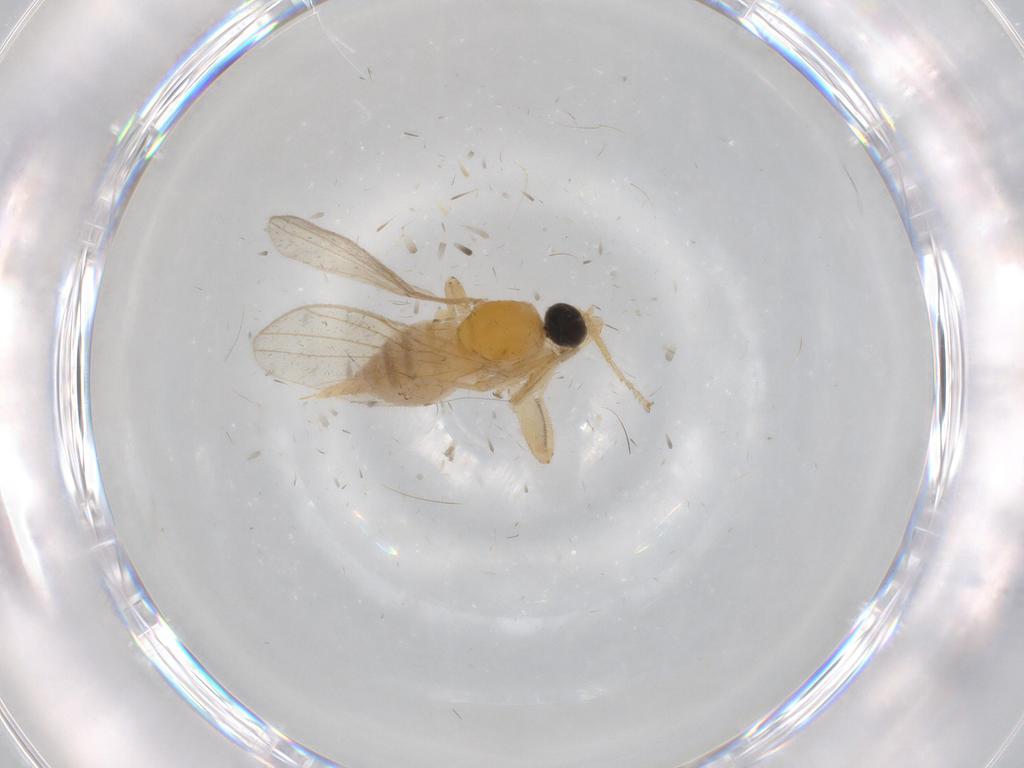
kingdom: Animalia
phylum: Arthropoda
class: Insecta
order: Diptera
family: Hybotidae
